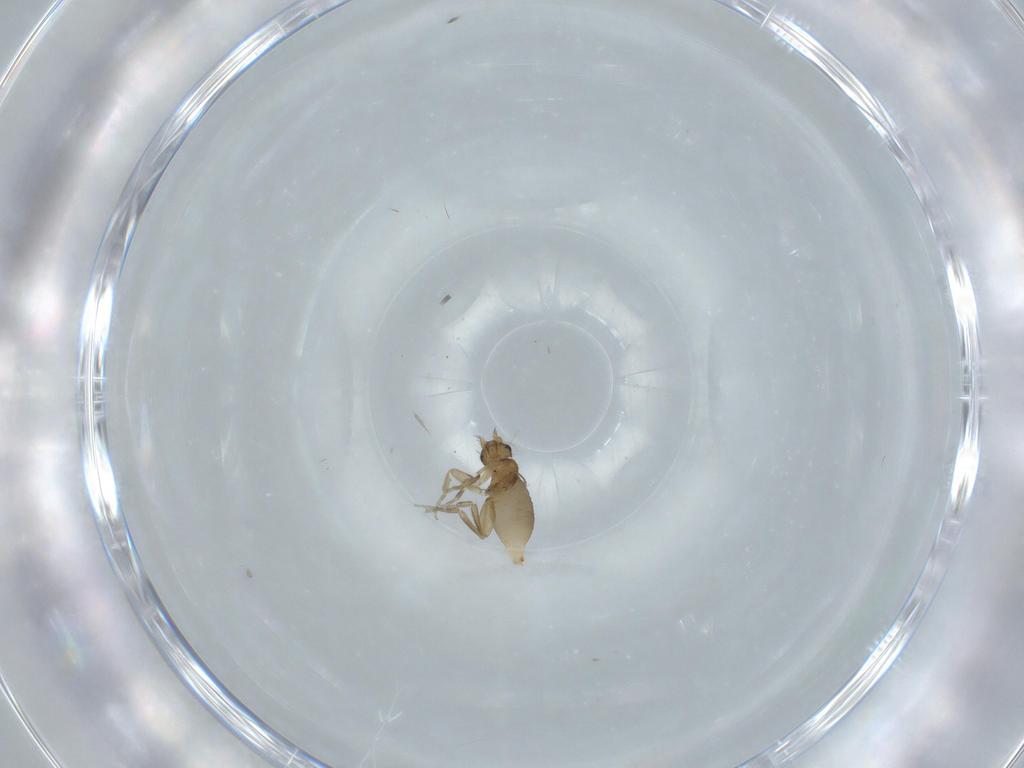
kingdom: Animalia
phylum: Arthropoda
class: Insecta
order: Diptera
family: Phoridae
